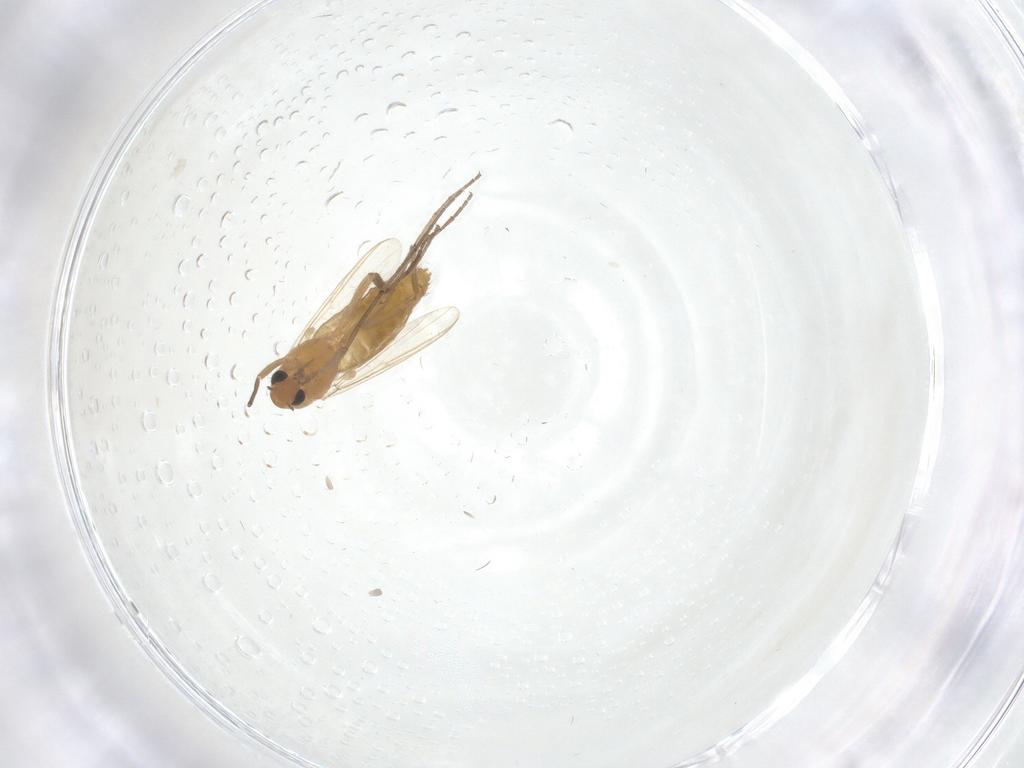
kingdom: Animalia
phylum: Arthropoda
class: Insecta
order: Diptera
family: Chironomidae
